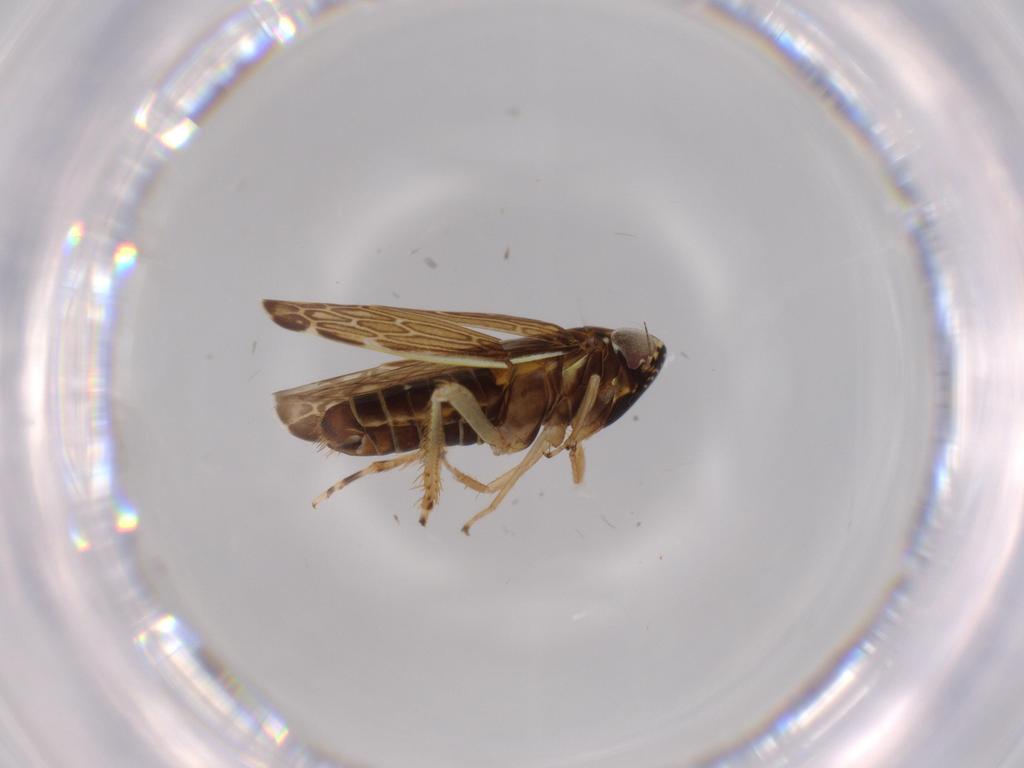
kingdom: Animalia
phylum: Arthropoda
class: Insecta
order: Hemiptera
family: Cicadellidae
